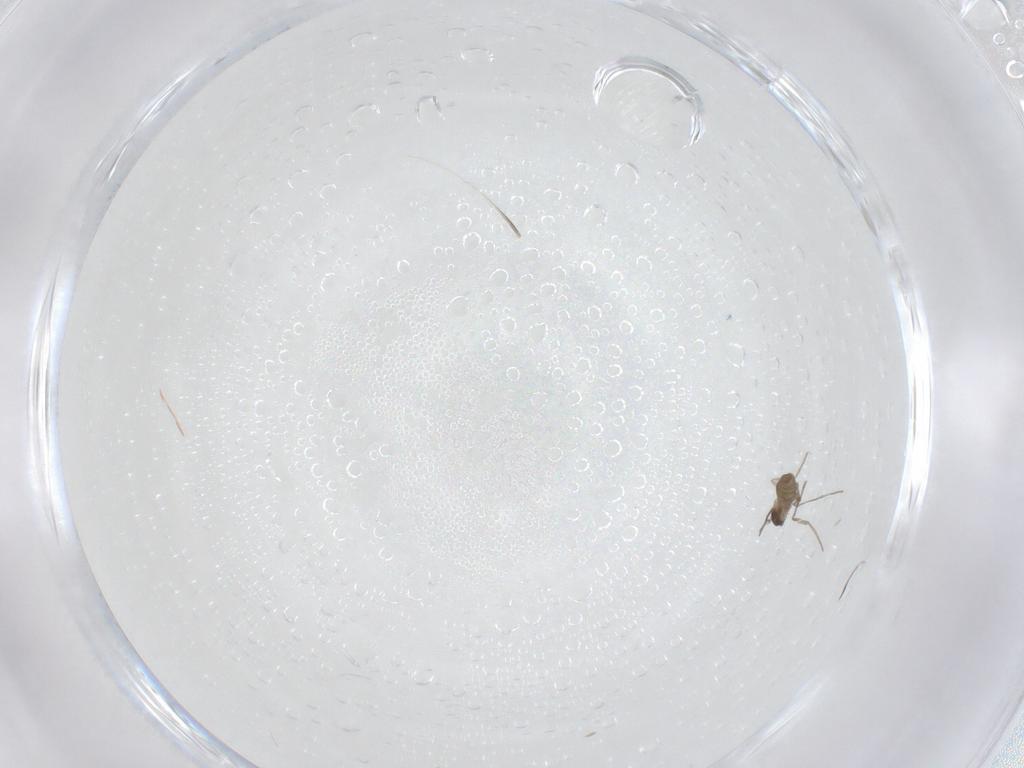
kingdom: Animalia
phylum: Arthropoda
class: Insecta
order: Diptera
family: Cecidomyiidae
